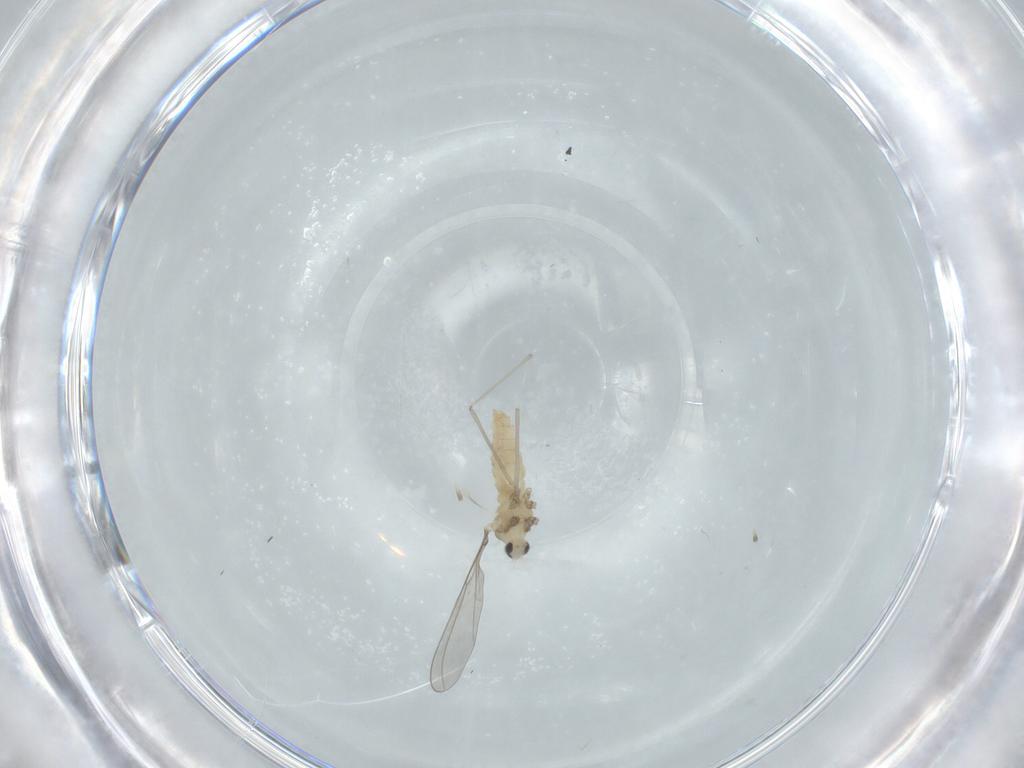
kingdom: Animalia
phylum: Arthropoda
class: Insecta
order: Diptera
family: Cecidomyiidae
